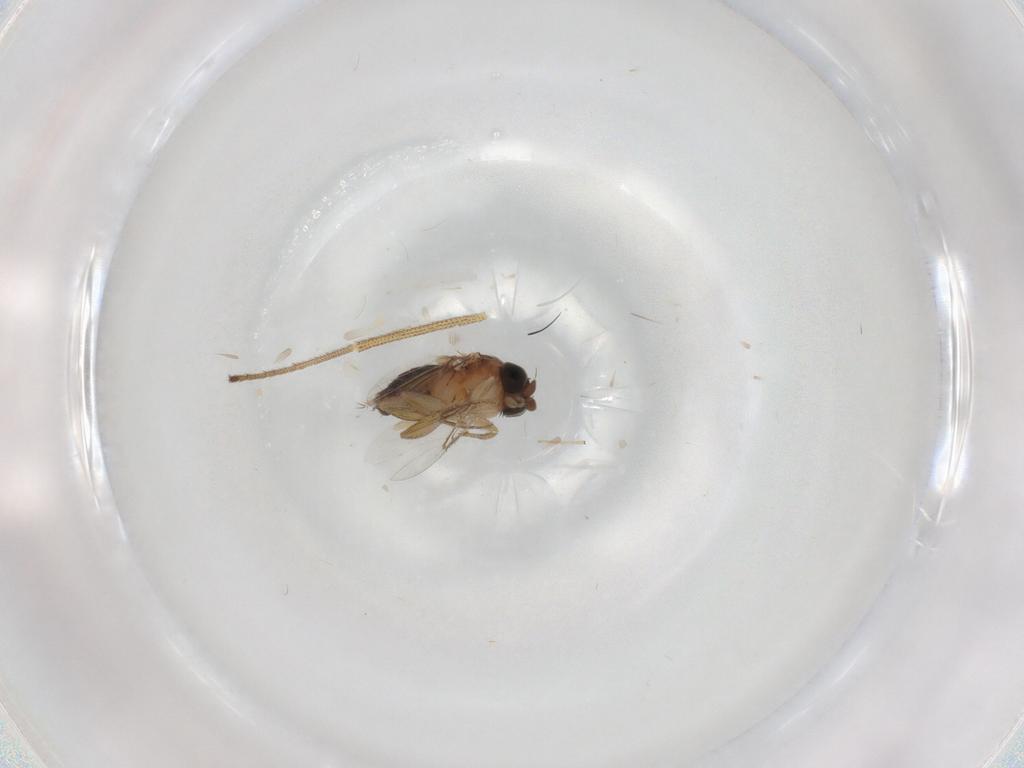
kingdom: Animalia
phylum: Arthropoda
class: Insecta
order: Diptera
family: Phoridae
